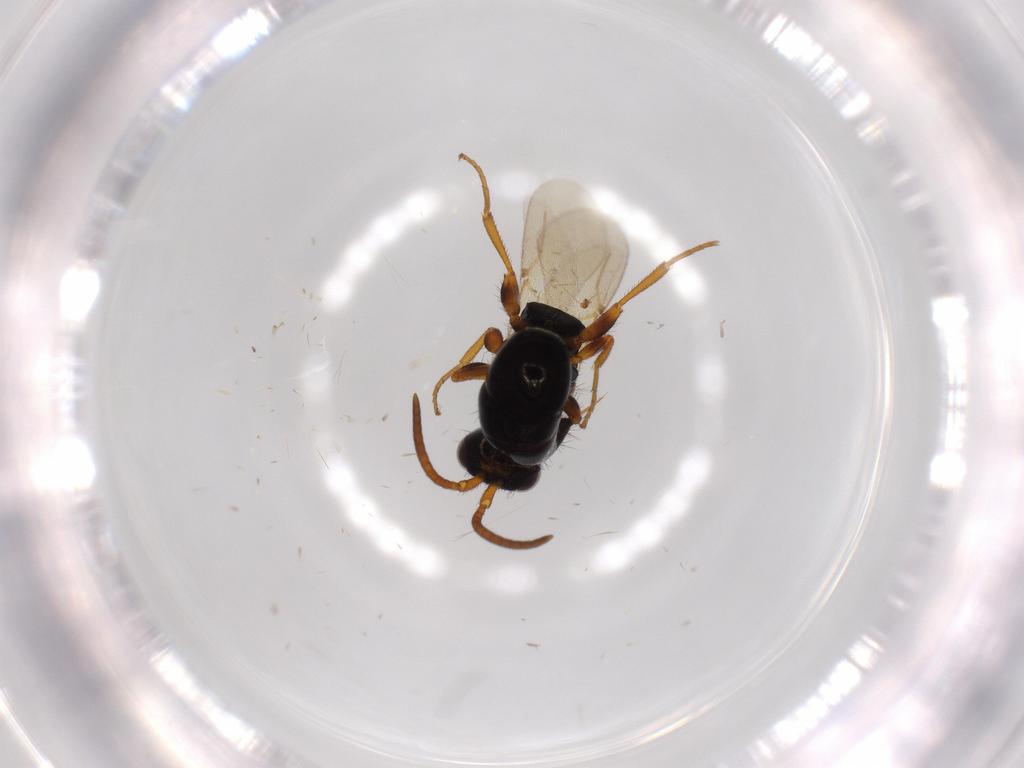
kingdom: Animalia
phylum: Arthropoda
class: Insecta
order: Hymenoptera
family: Bethylidae
